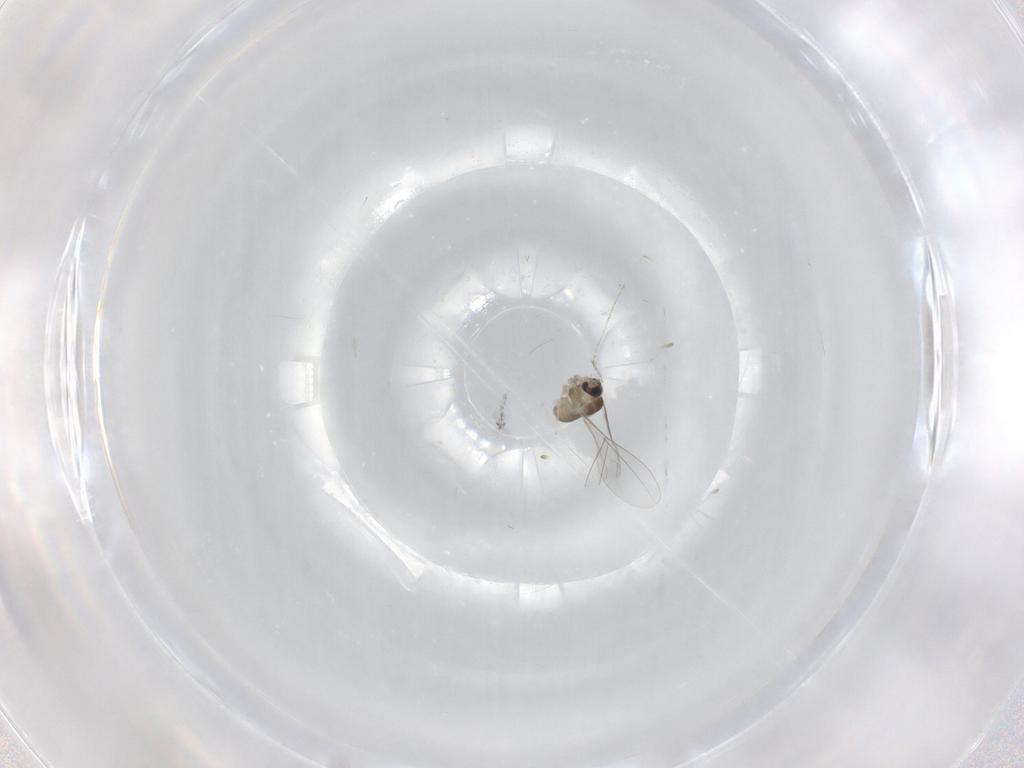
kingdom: Animalia
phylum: Arthropoda
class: Insecta
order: Diptera
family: Cecidomyiidae
